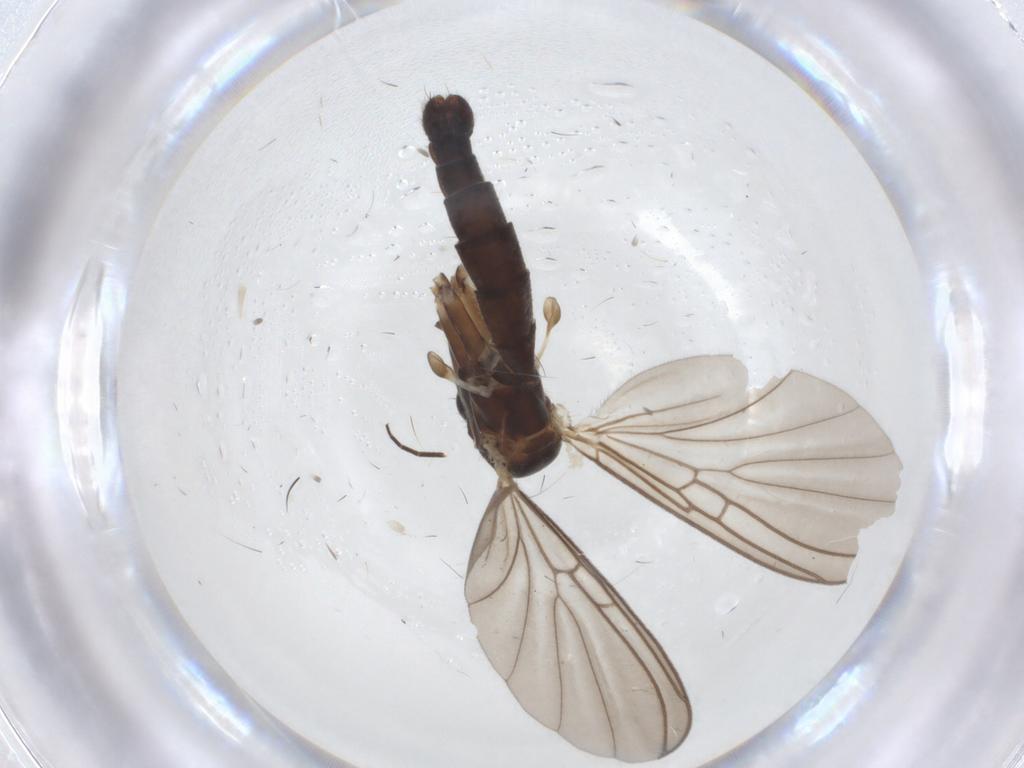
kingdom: Animalia
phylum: Arthropoda
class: Insecta
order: Diptera
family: Mycetophilidae
